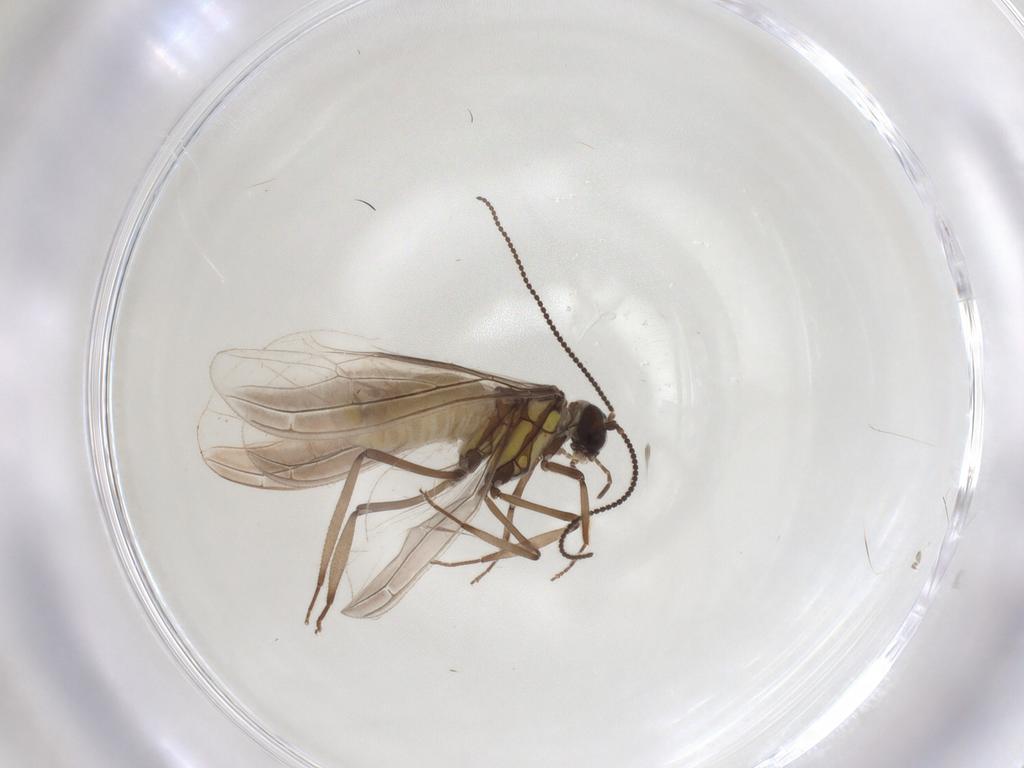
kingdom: Animalia
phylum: Arthropoda
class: Insecta
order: Neuroptera
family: Coniopterygidae
